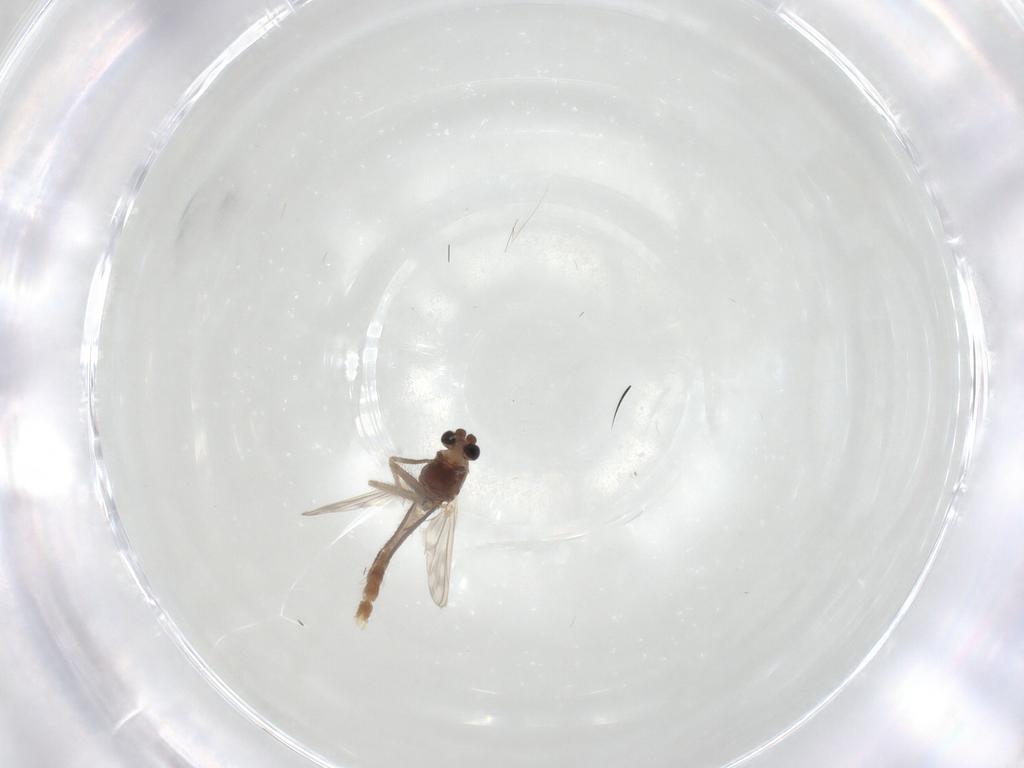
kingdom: Animalia
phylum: Arthropoda
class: Insecta
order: Diptera
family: Chironomidae
